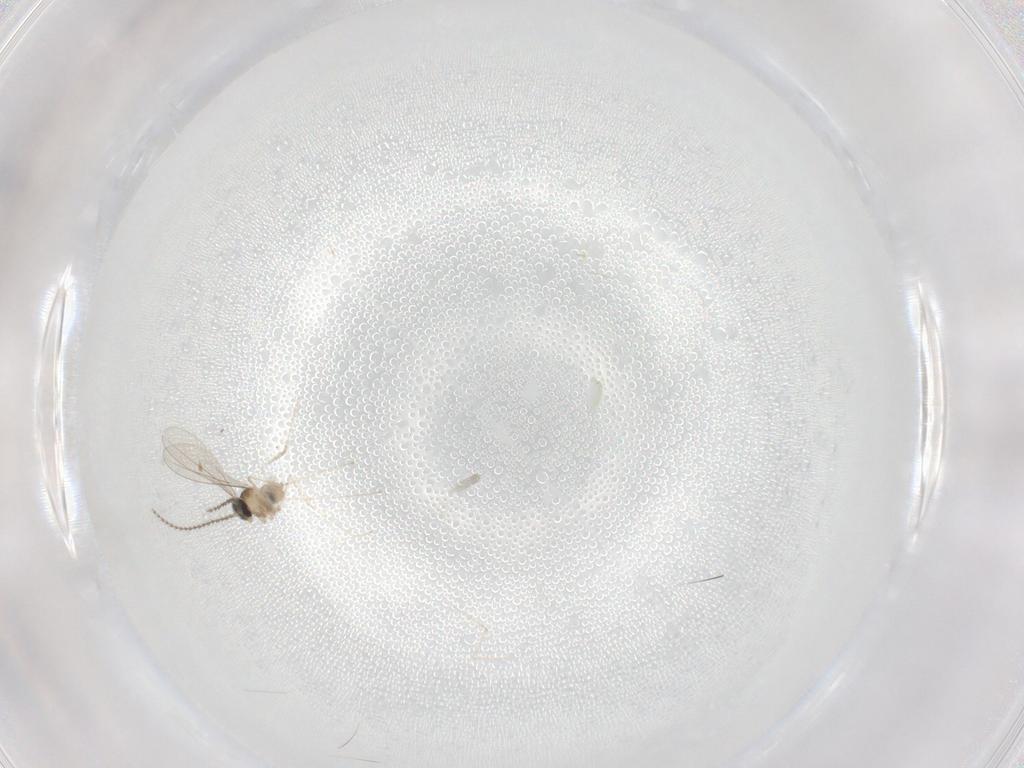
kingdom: Animalia
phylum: Arthropoda
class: Insecta
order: Diptera
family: Cecidomyiidae
